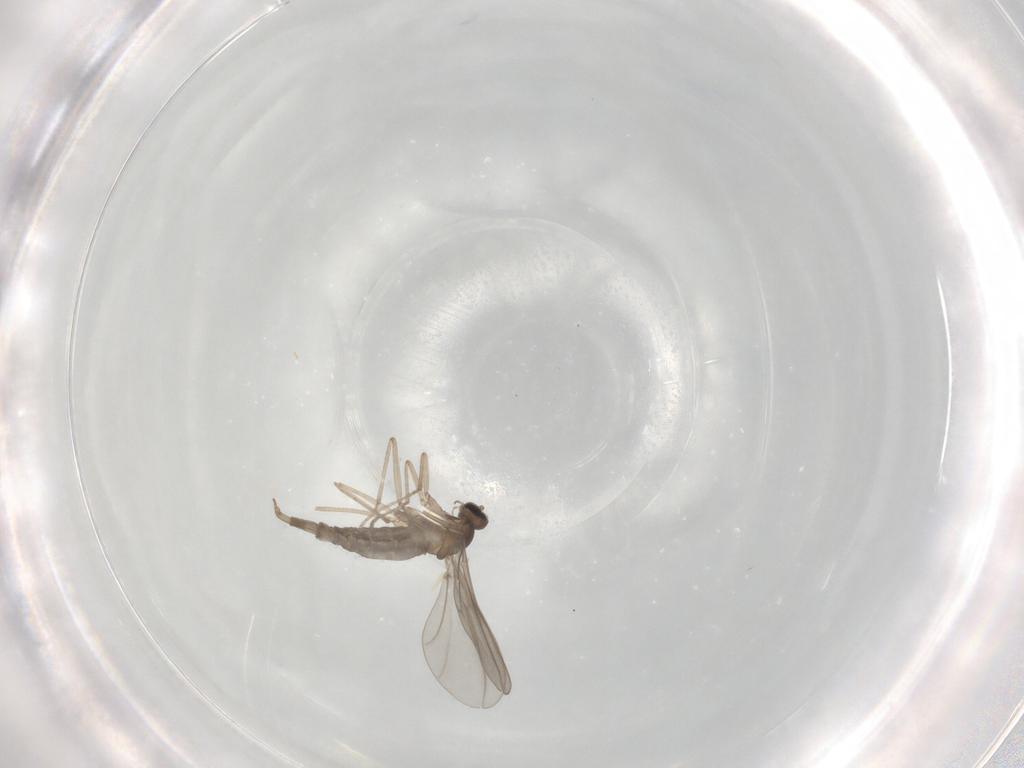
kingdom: Animalia
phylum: Arthropoda
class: Insecta
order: Diptera
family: Cecidomyiidae
